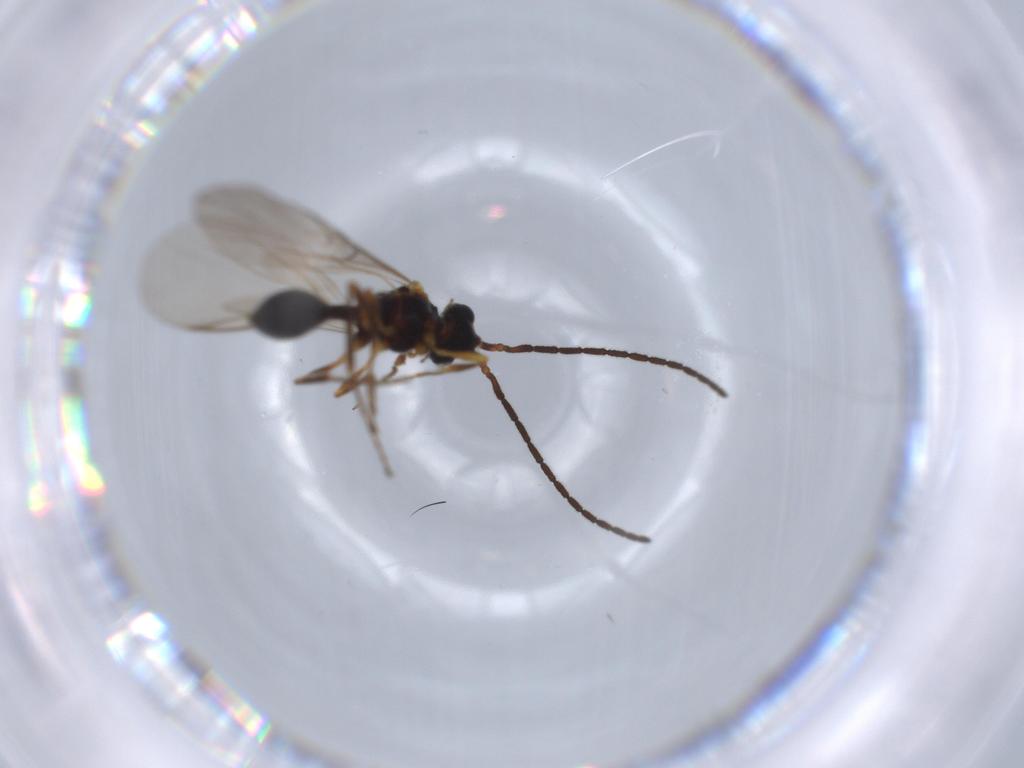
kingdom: Animalia
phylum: Arthropoda
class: Insecta
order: Hymenoptera
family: Diapriidae
